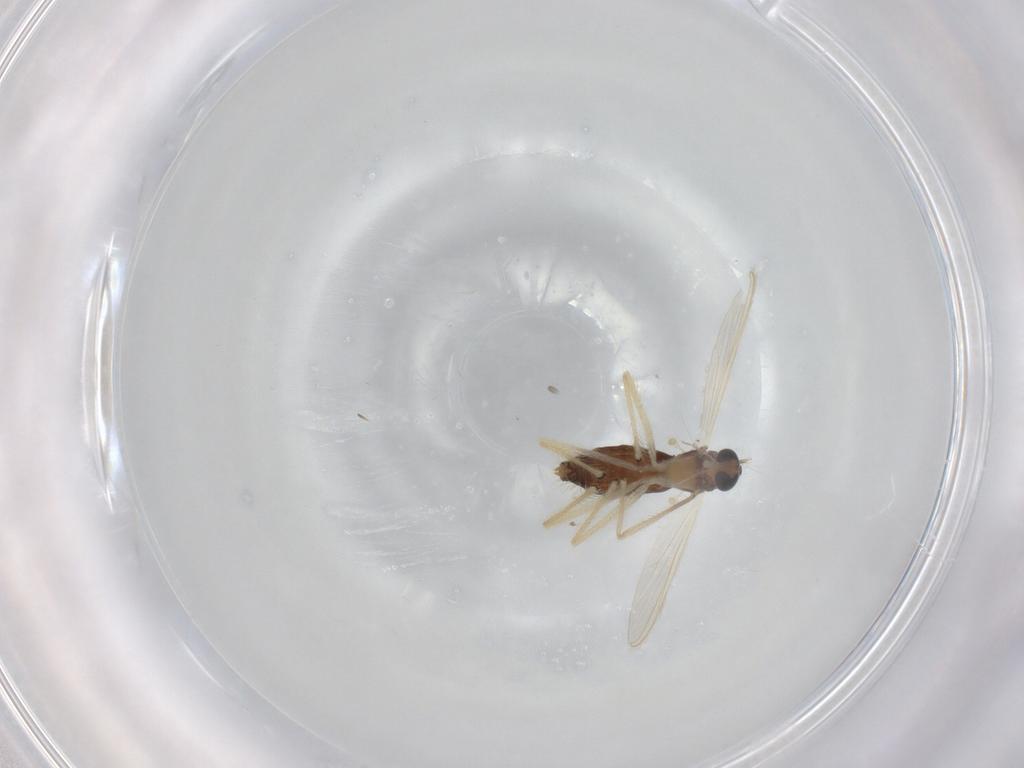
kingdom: Animalia
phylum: Arthropoda
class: Insecta
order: Diptera
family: Chironomidae
